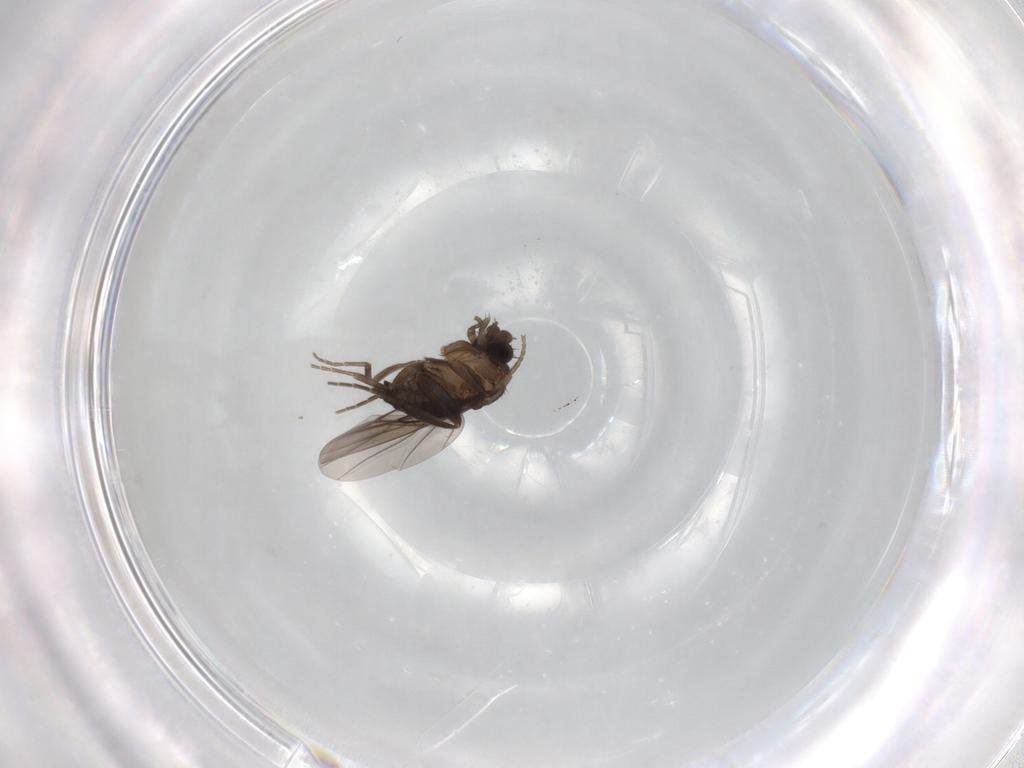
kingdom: Animalia
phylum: Arthropoda
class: Insecta
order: Diptera
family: Phoridae
